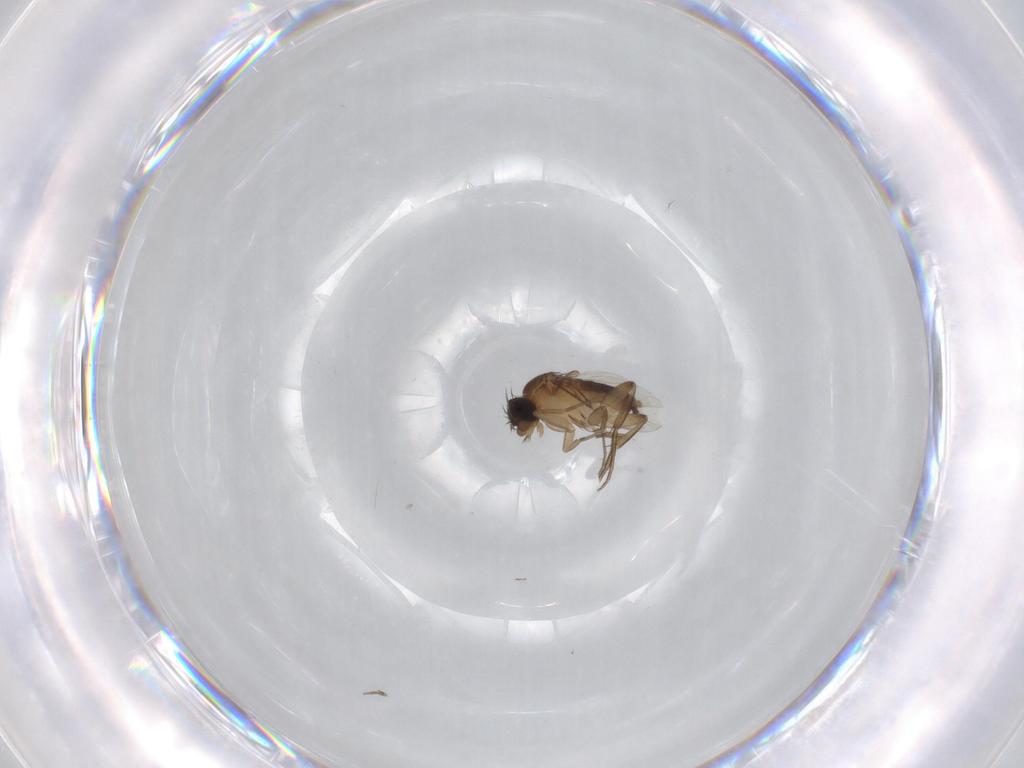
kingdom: Animalia
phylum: Arthropoda
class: Insecta
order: Diptera
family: Phoridae
